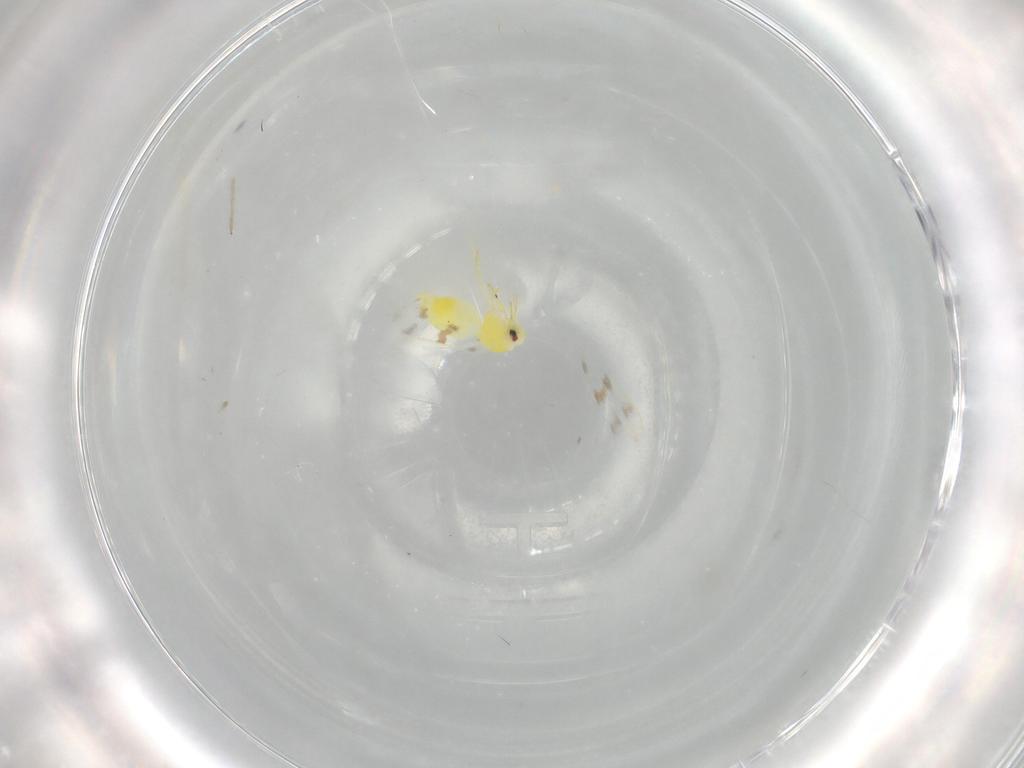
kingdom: Animalia
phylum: Arthropoda
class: Insecta
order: Hemiptera
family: Aleyrodidae
